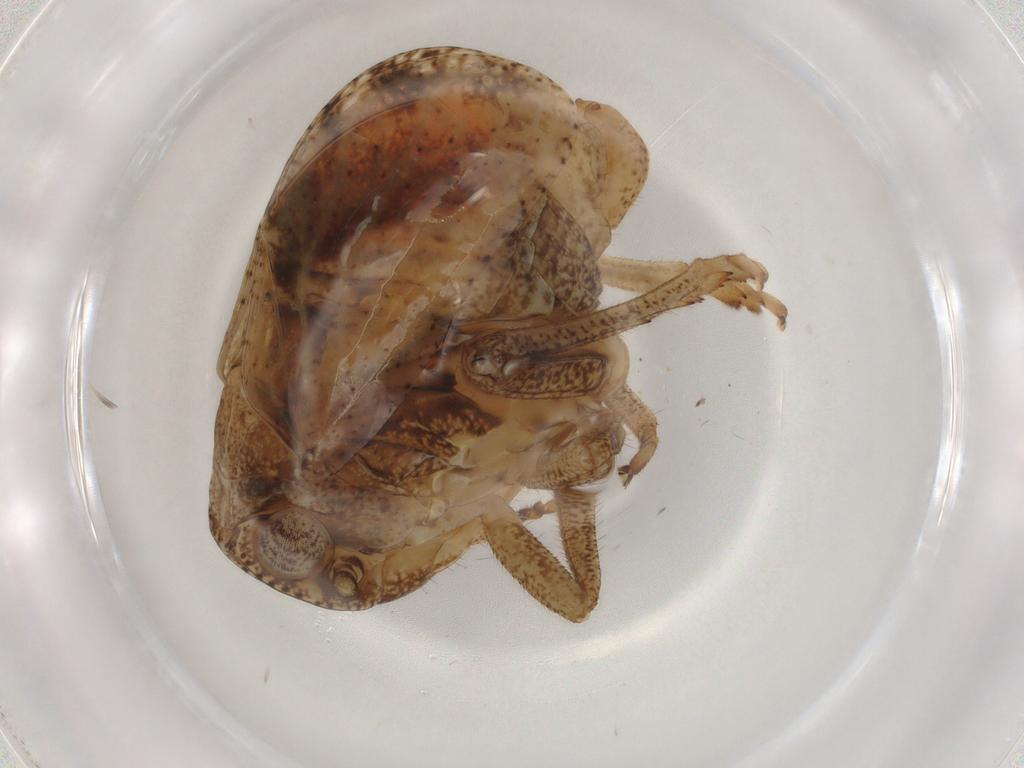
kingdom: Animalia
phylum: Arthropoda
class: Insecta
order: Hemiptera
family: Tropiduchidae
